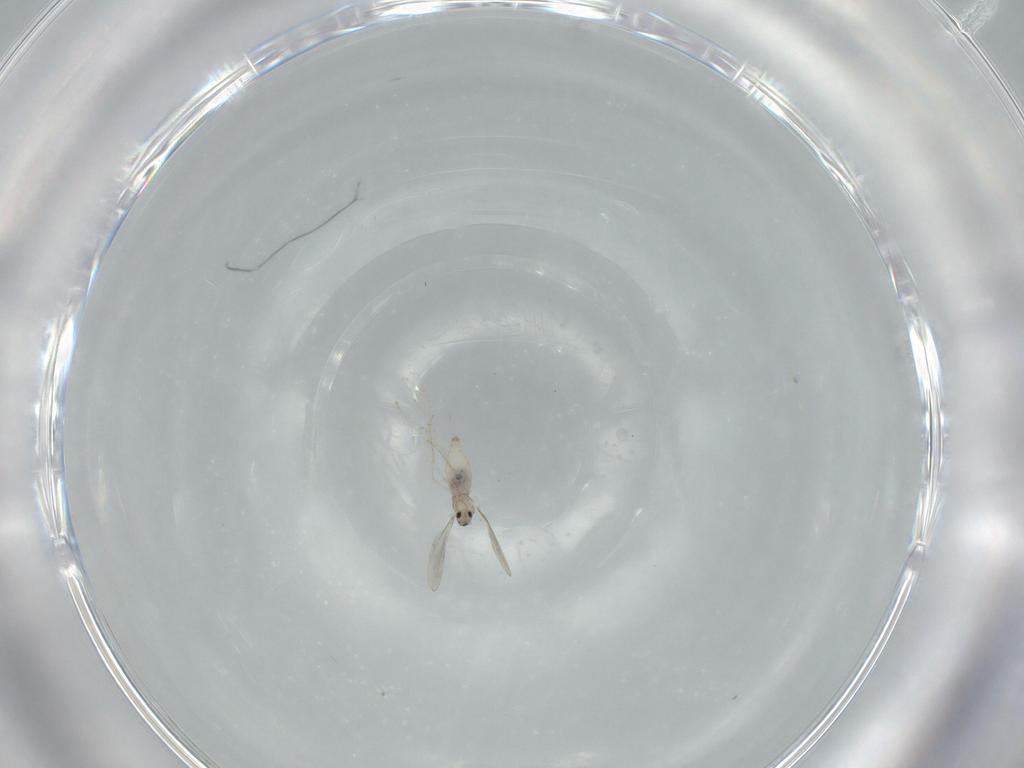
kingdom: Animalia
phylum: Arthropoda
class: Insecta
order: Diptera
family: Cecidomyiidae
